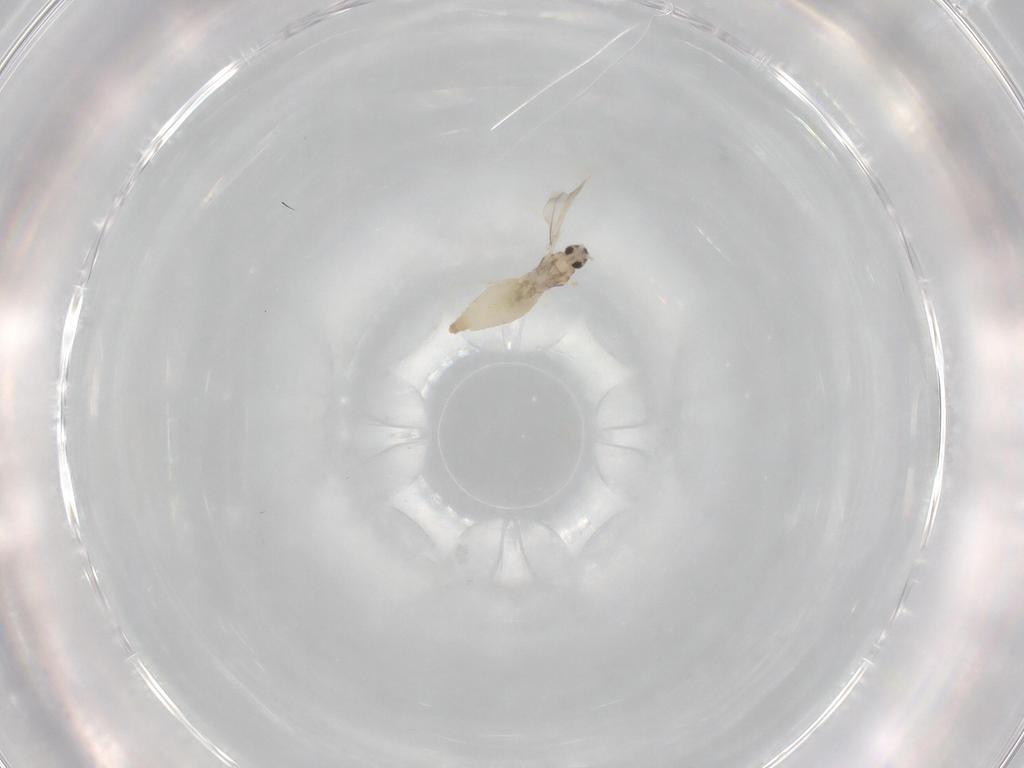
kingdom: Animalia
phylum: Arthropoda
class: Insecta
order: Diptera
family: Cecidomyiidae
